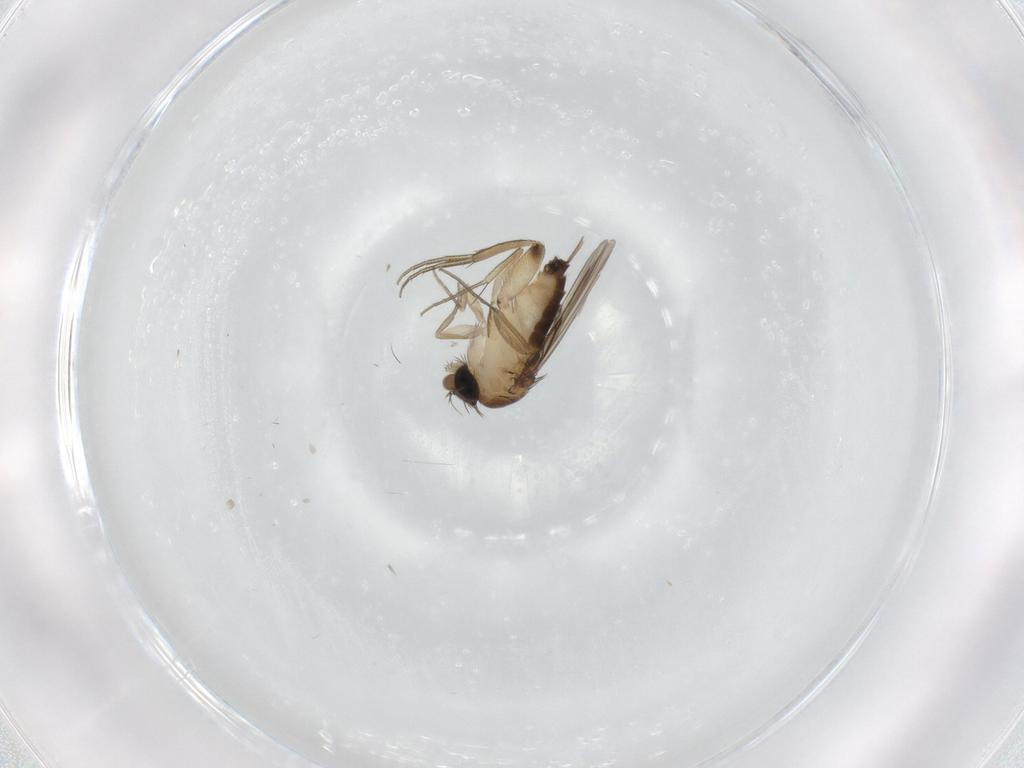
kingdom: Animalia
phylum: Arthropoda
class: Insecta
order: Diptera
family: Phoridae
